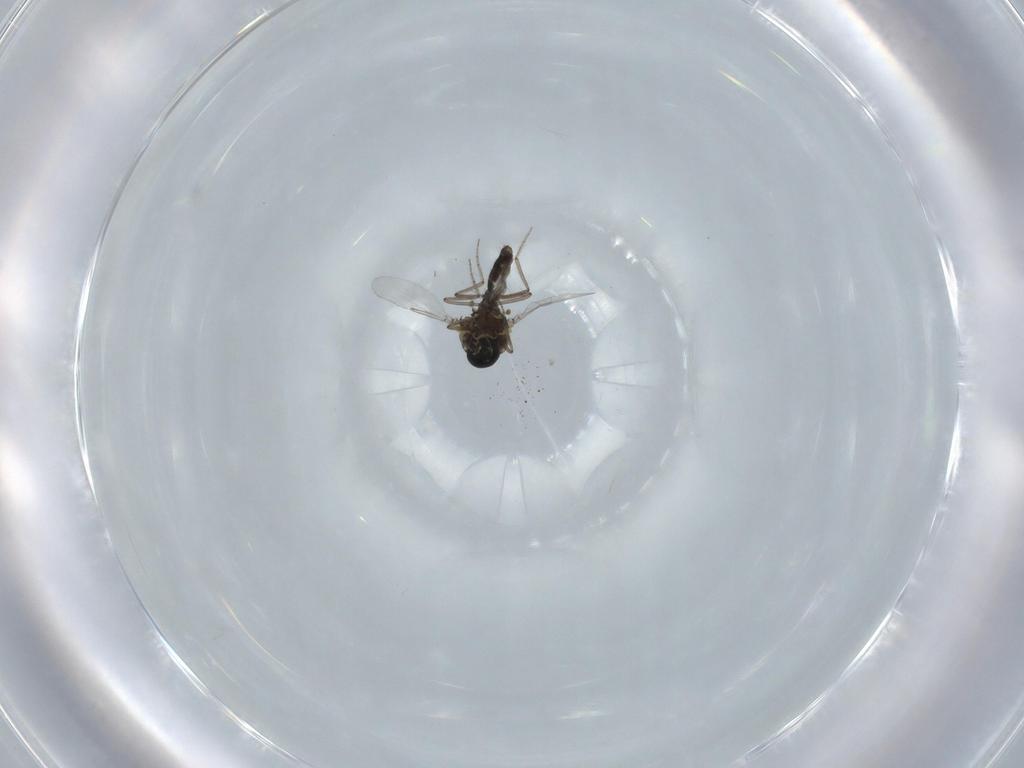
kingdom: Animalia
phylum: Arthropoda
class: Insecta
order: Diptera
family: Ceratopogonidae
